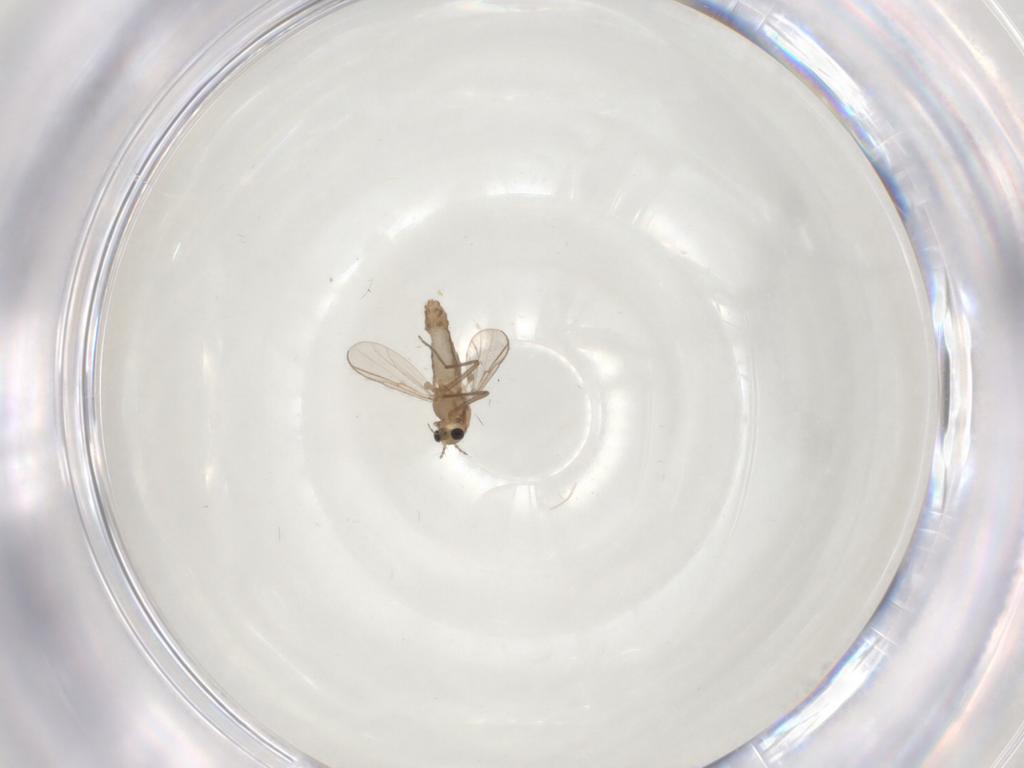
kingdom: Animalia
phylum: Arthropoda
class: Insecta
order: Diptera
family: Chironomidae
